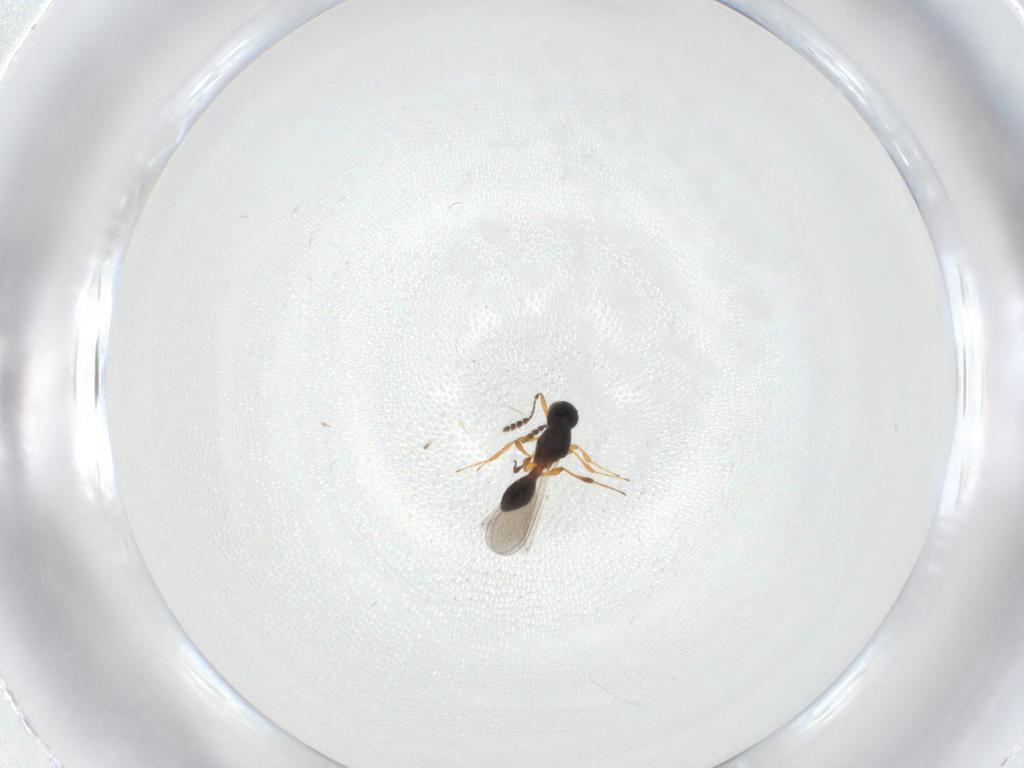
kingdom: Animalia
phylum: Arthropoda
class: Insecta
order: Hymenoptera
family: Platygastridae
